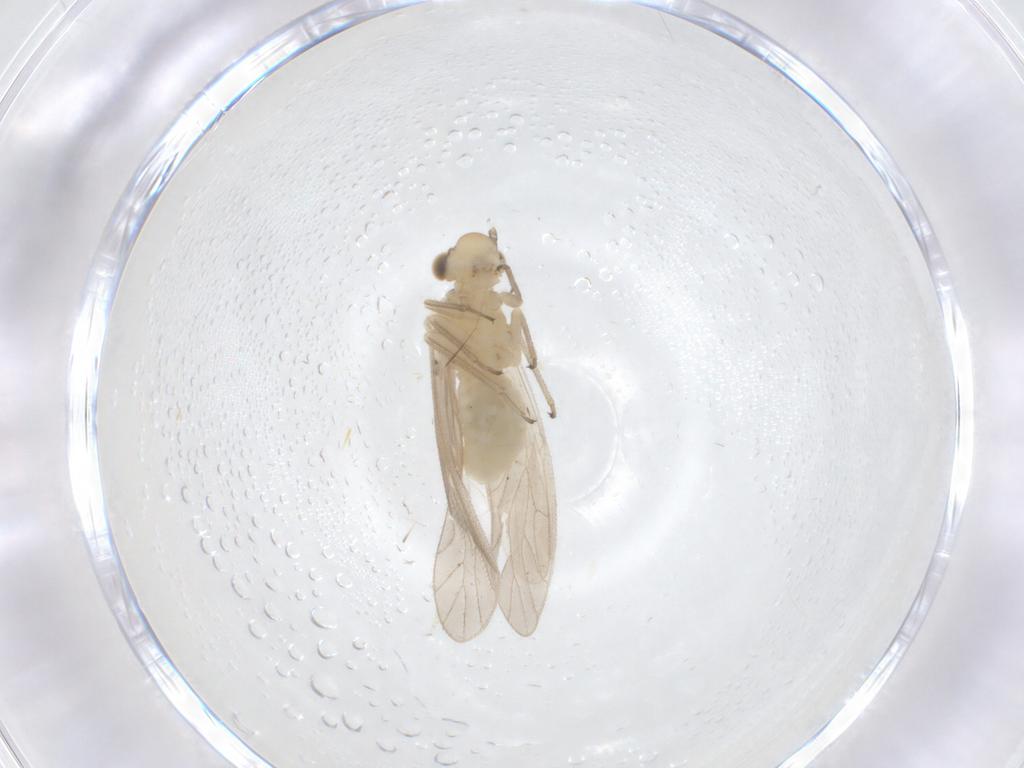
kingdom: Animalia
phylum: Arthropoda
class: Insecta
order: Psocodea
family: Caeciliusidae
